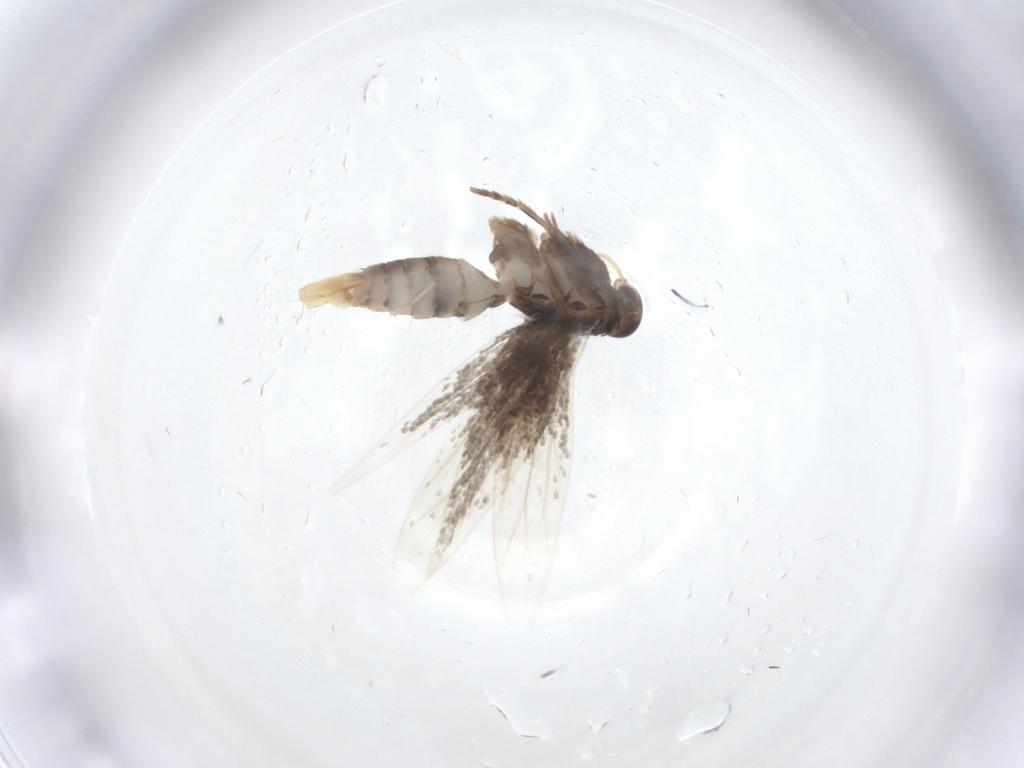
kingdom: Animalia
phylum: Arthropoda
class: Insecta
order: Lepidoptera
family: Elachistidae
